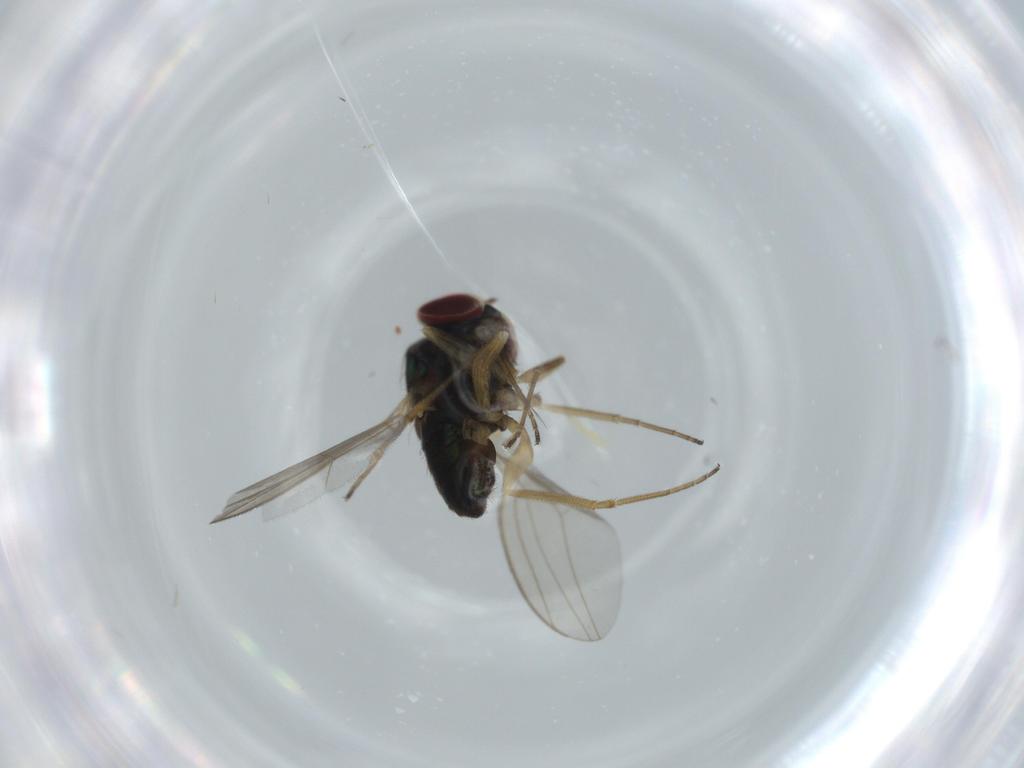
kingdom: Animalia
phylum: Arthropoda
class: Insecta
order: Diptera
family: Dolichopodidae
